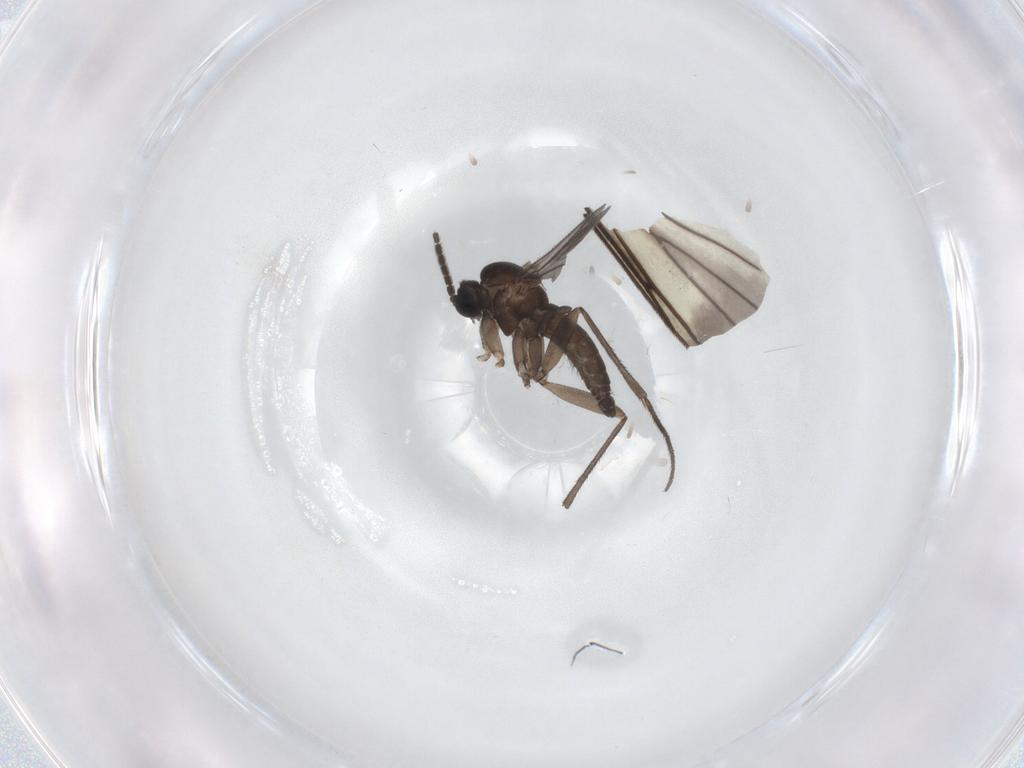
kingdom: Animalia
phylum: Arthropoda
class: Insecta
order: Diptera
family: Sciaridae
